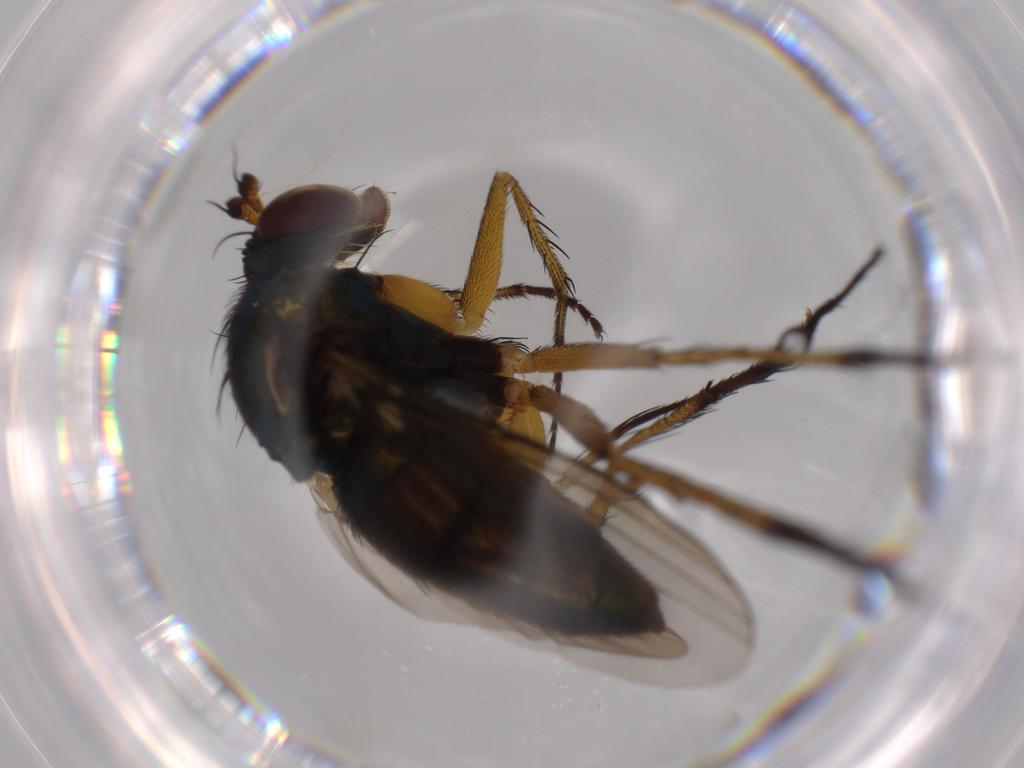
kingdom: Animalia
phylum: Arthropoda
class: Insecta
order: Diptera
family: Dolichopodidae
